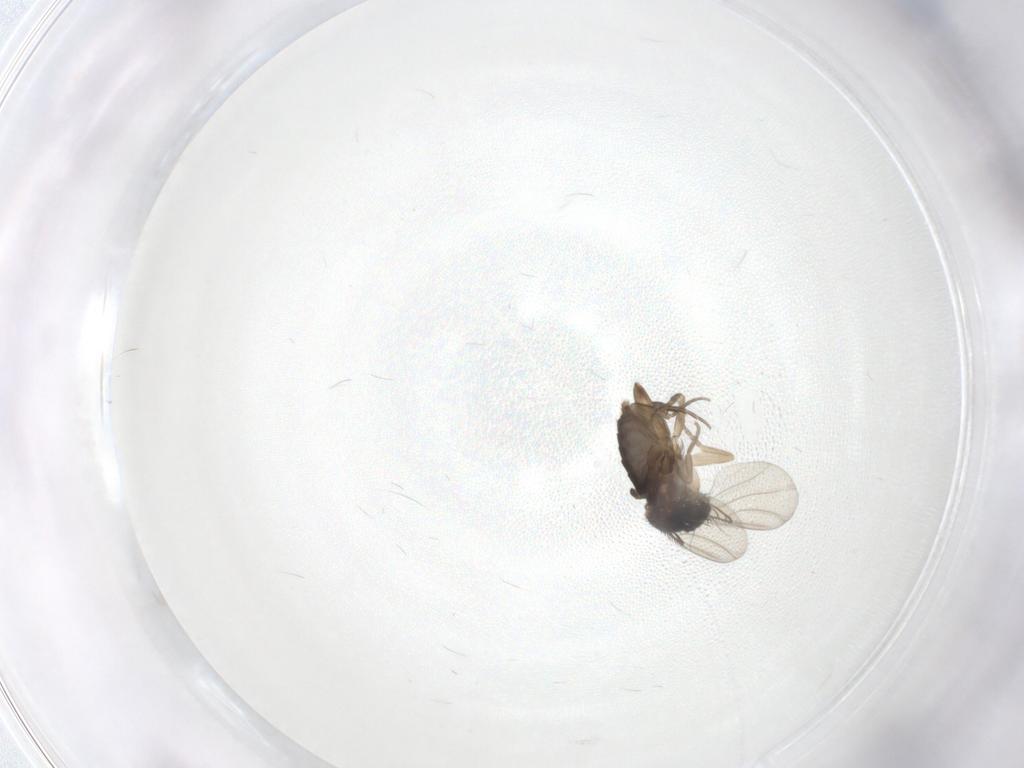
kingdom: Animalia
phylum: Arthropoda
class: Insecta
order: Diptera
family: Phoridae
